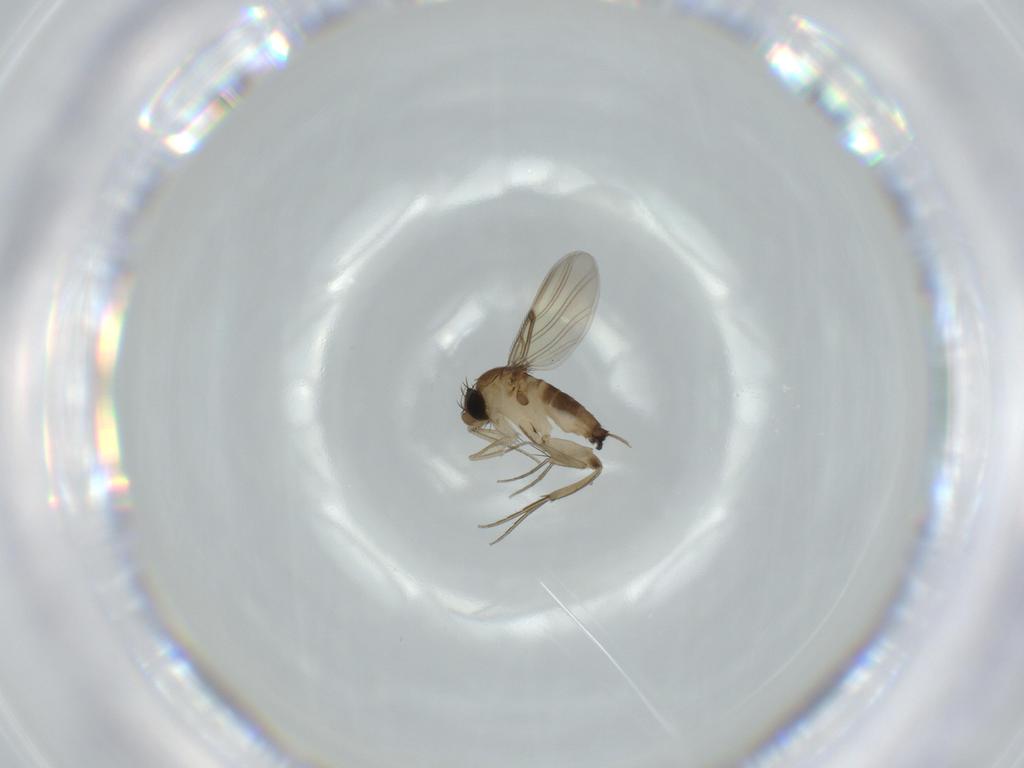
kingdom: Animalia
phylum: Arthropoda
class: Insecta
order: Diptera
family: Phoridae
